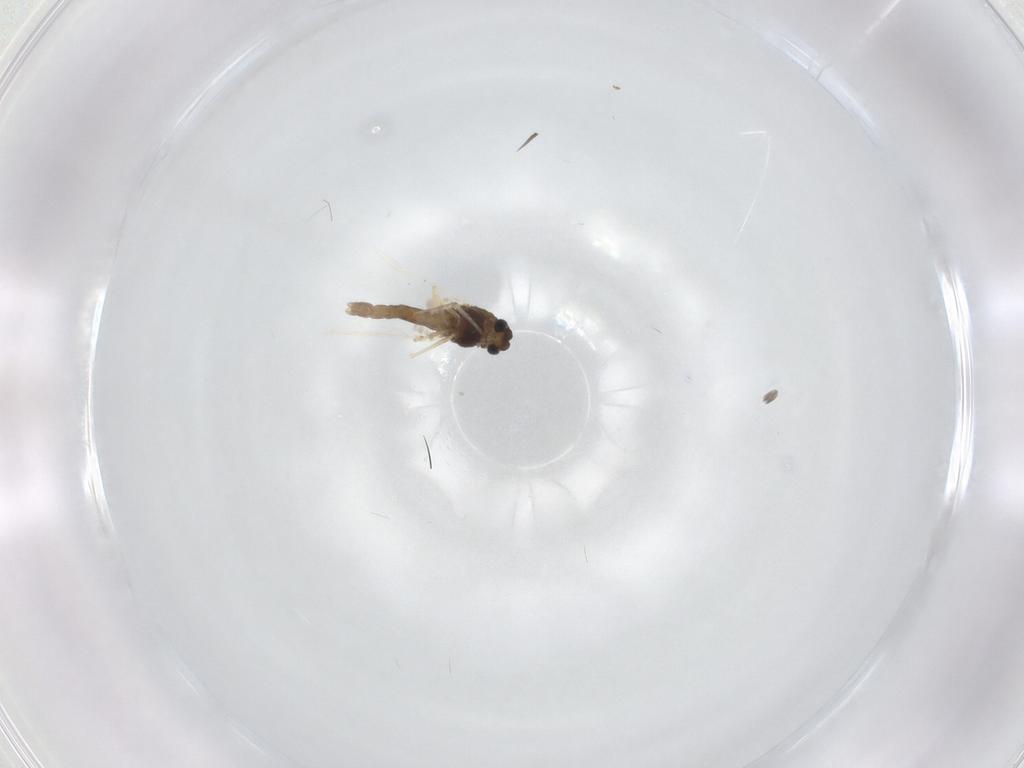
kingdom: Animalia
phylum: Arthropoda
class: Insecta
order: Diptera
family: Chironomidae
